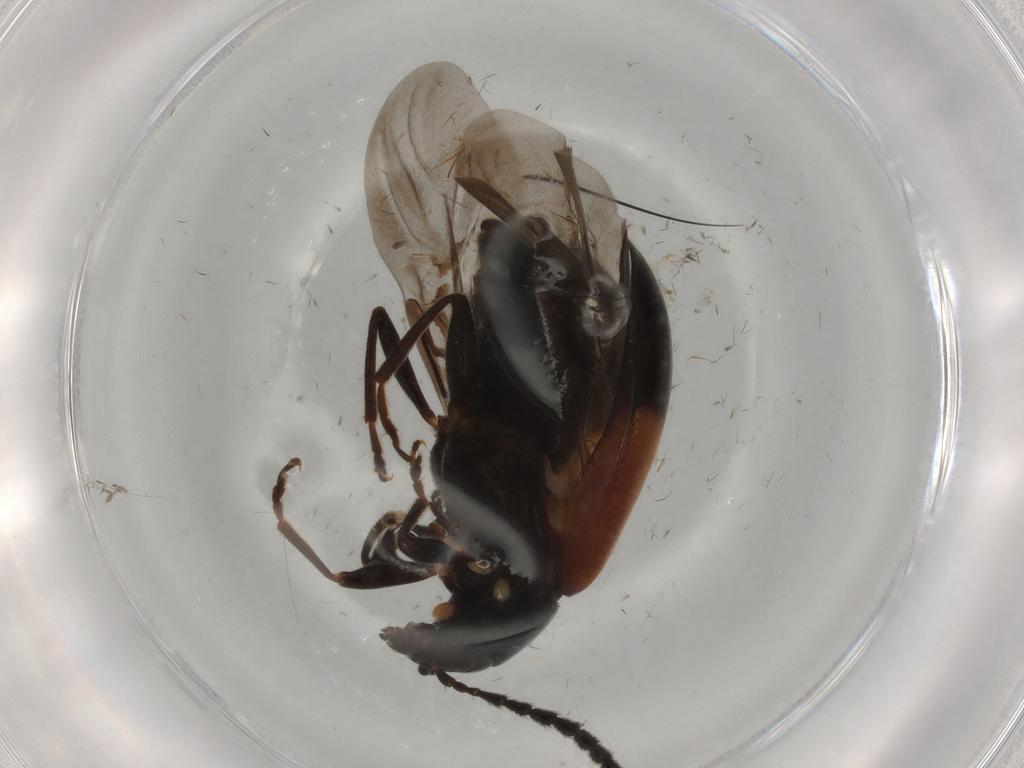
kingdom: Animalia
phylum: Arthropoda
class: Insecta
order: Coleoptera
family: Chrysomelidae
